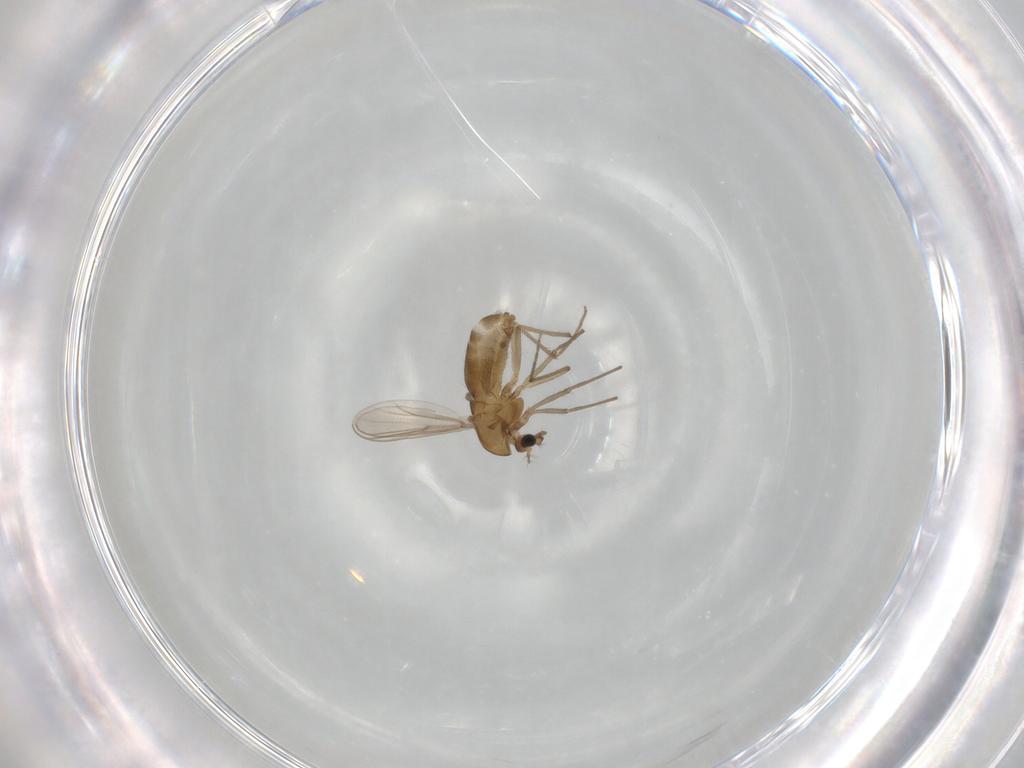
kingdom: Animalia
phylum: Arthropoda
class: Insecta
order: Diptera
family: Chironomidae
